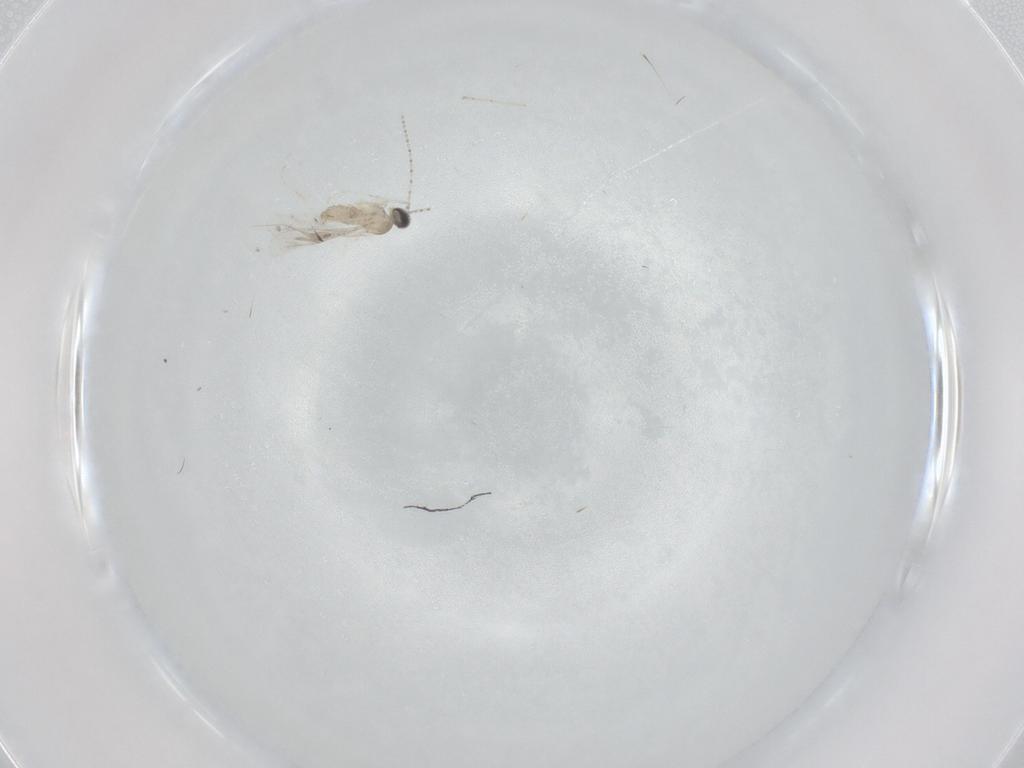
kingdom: Animalia
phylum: Arthropoda
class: Insecta
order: Diptera
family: Cecidomyiidae
